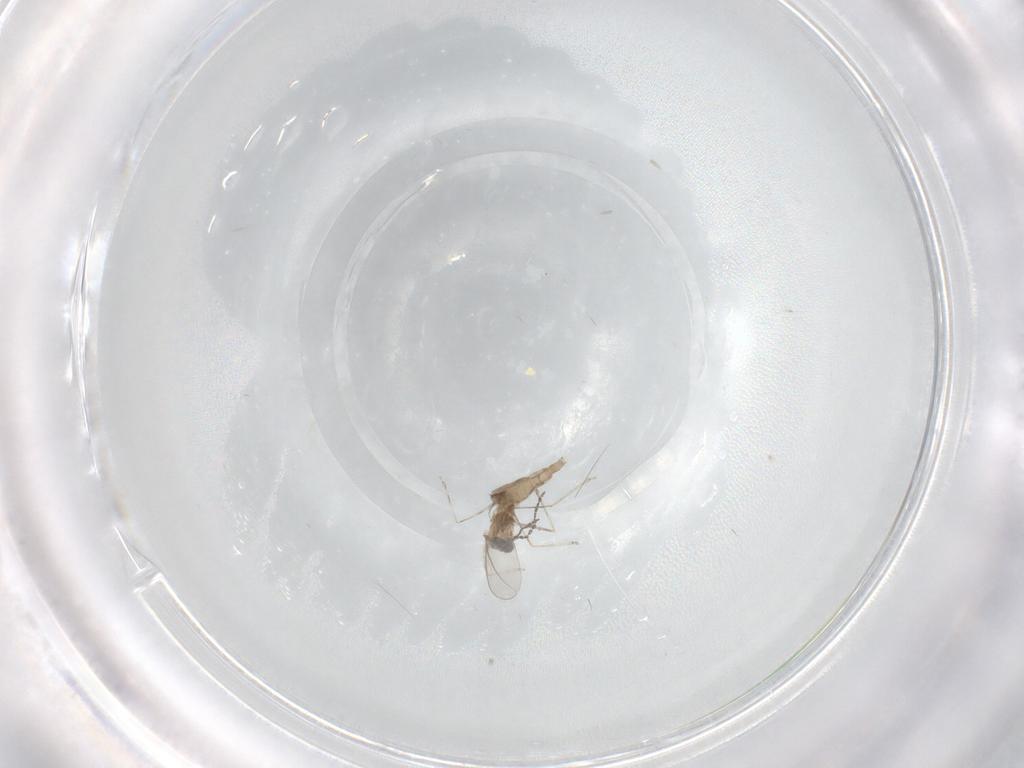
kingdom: Animalia
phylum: Arthropoda
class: Insecta
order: Diptera
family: Cecidomyiidae
